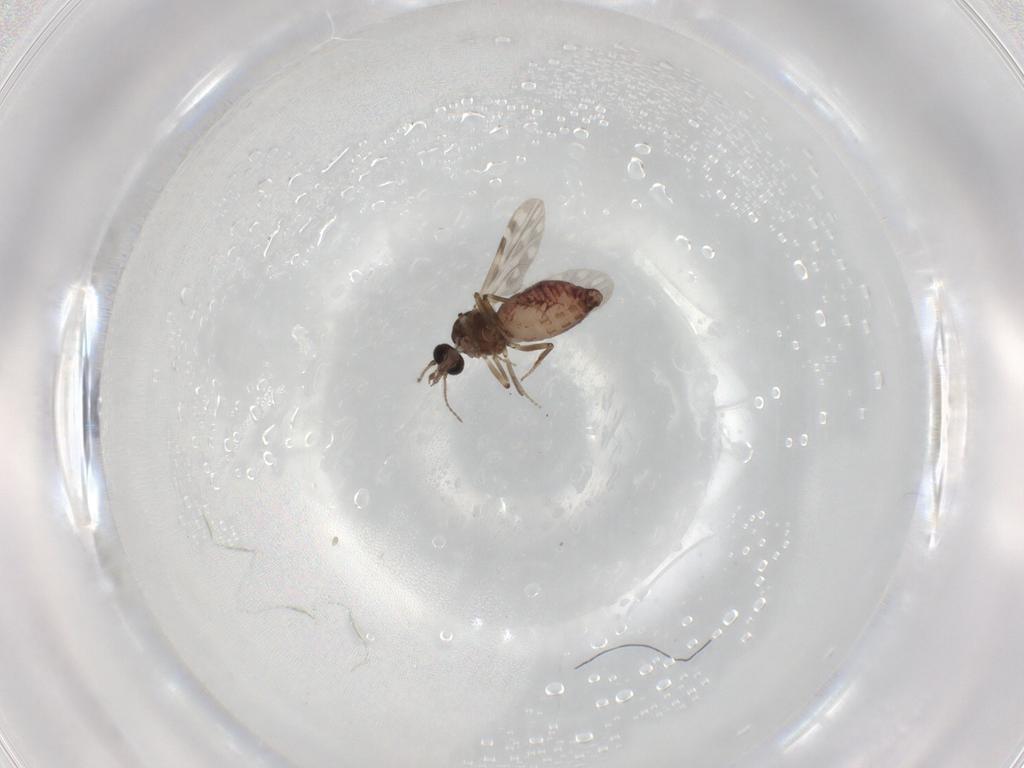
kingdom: Animalia
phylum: Arthropoda
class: Insecta
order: Diptera
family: Ceratopogonidae
